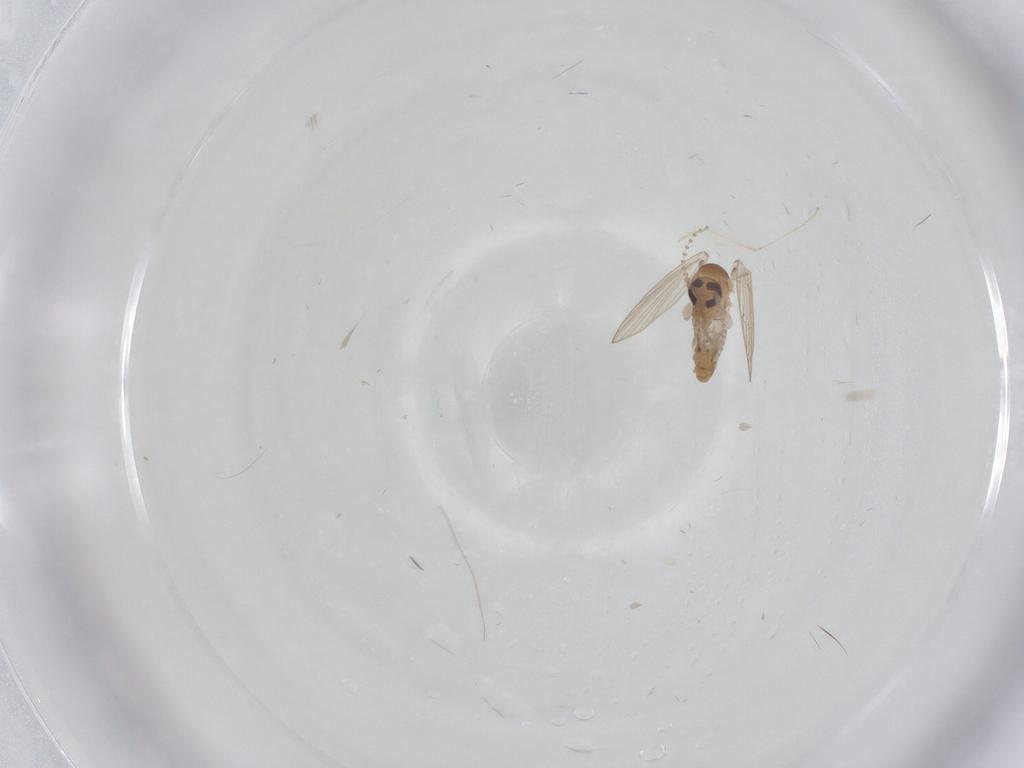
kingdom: Animalia
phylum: Arthropoda
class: Insecta
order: Diptera
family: Psychodidae
